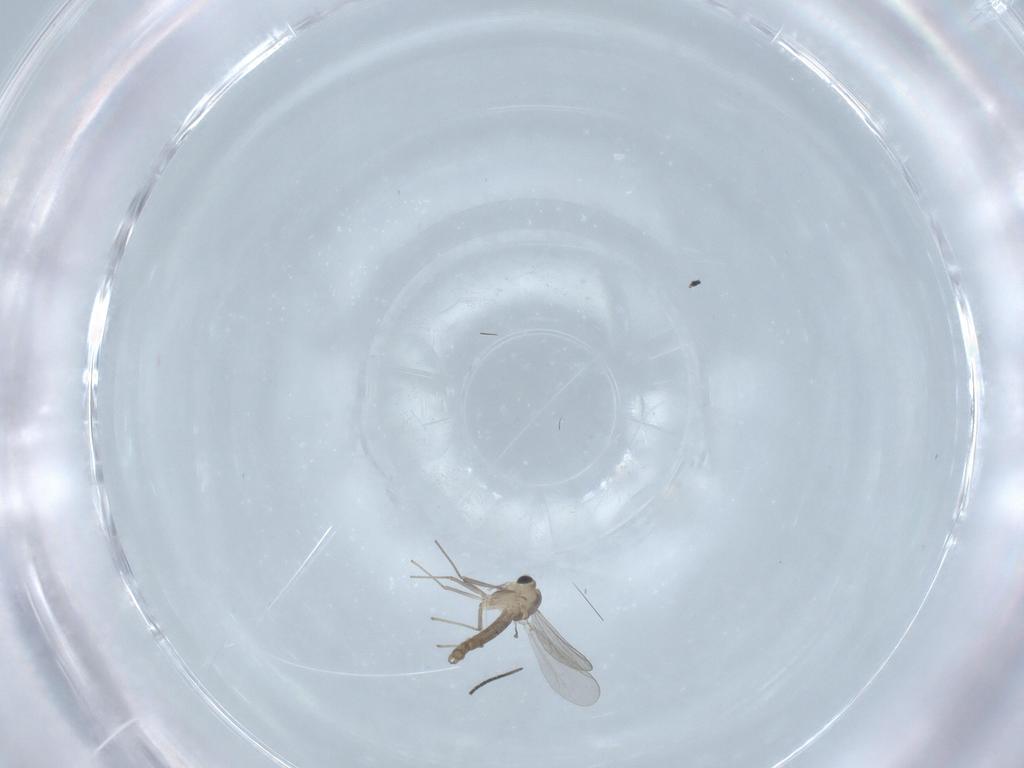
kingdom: Animalia
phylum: Arthropoda
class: Insecta
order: Diptera
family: Chironomidae
